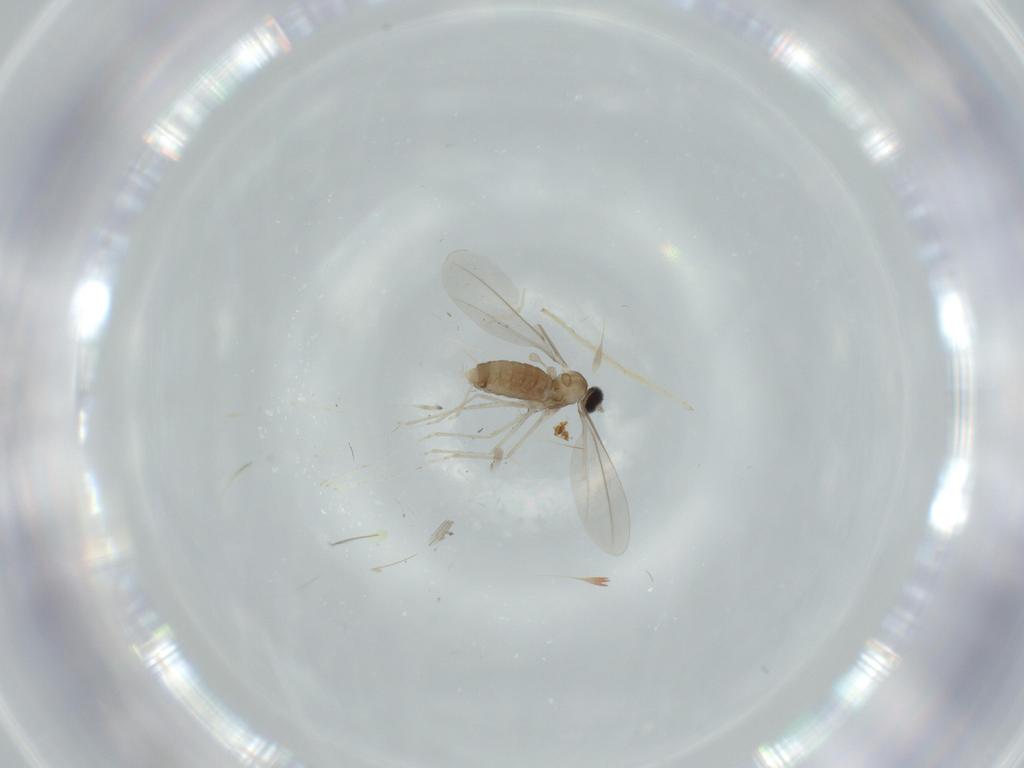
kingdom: Animalia
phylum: Arthropoda
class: Insecta
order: Diptera
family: Cecidomyiidae
